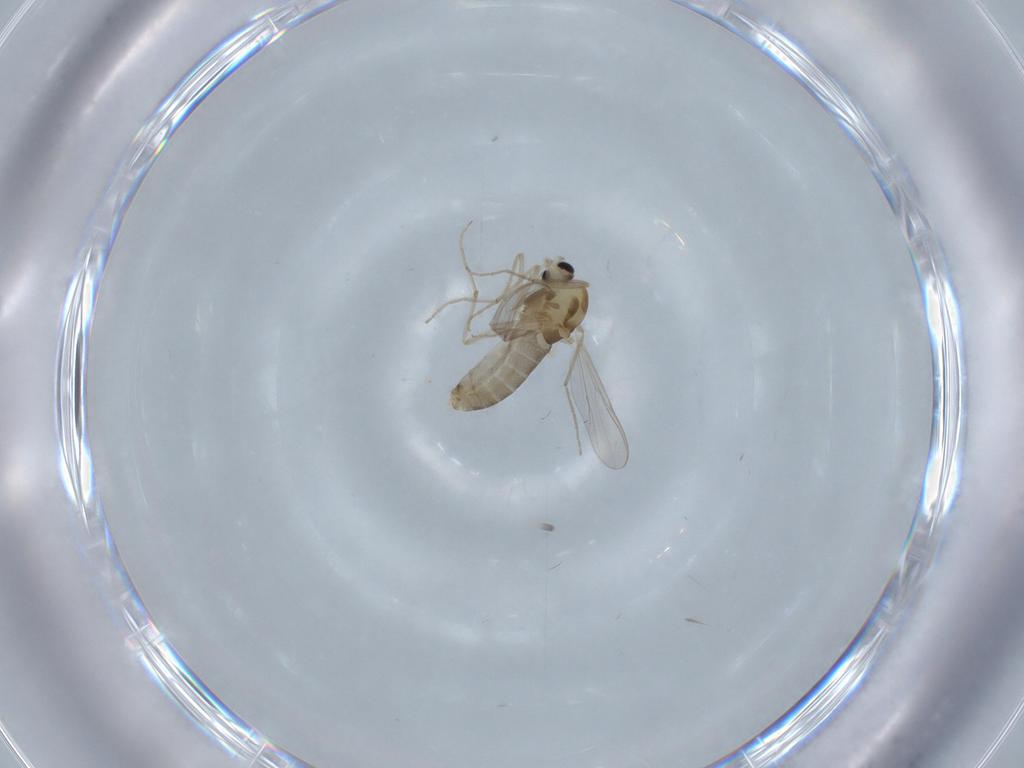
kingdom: Animalia
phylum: Arthropoda
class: Insecta
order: Diptera
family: Chironomidae
